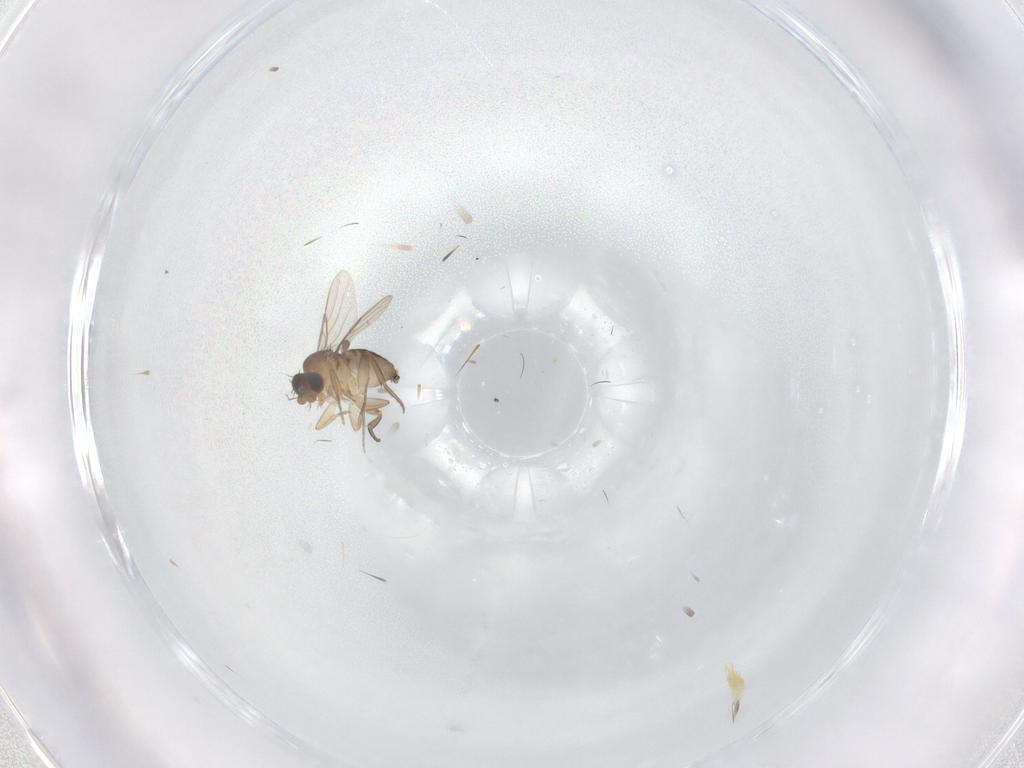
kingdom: Animalia
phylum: Arthropoda
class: Insecta
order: Diptera
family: Phoridae
